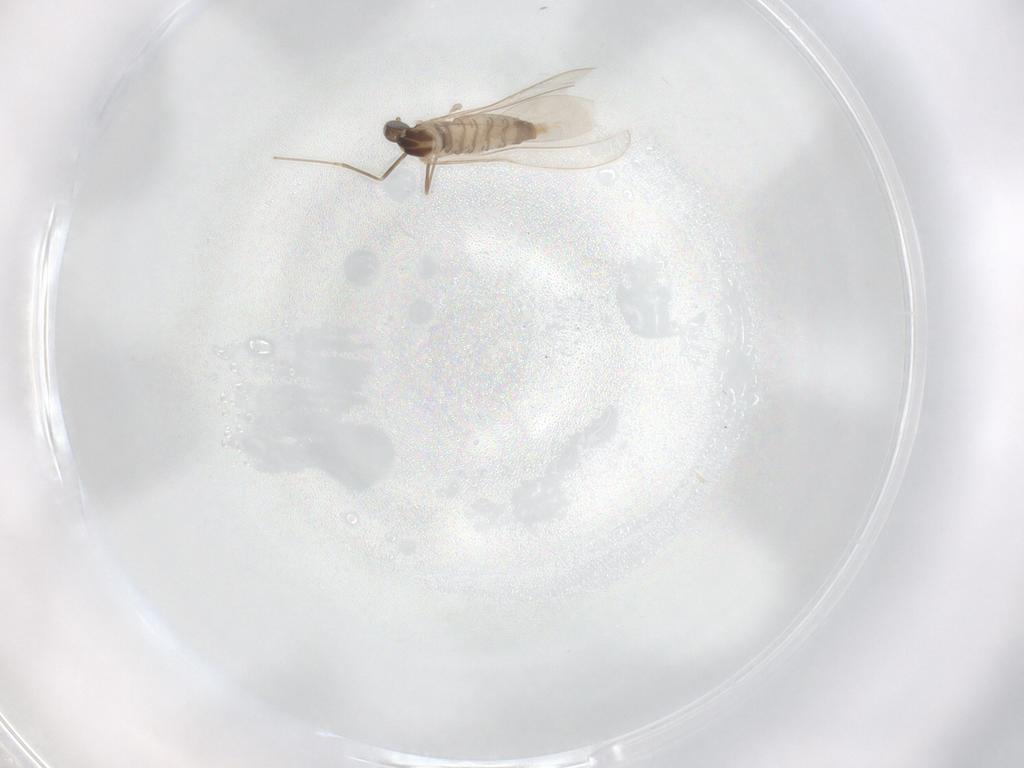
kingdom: Animalia
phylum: Arthropoda
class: Insecta
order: Diptera
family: Cecidomyiidae
